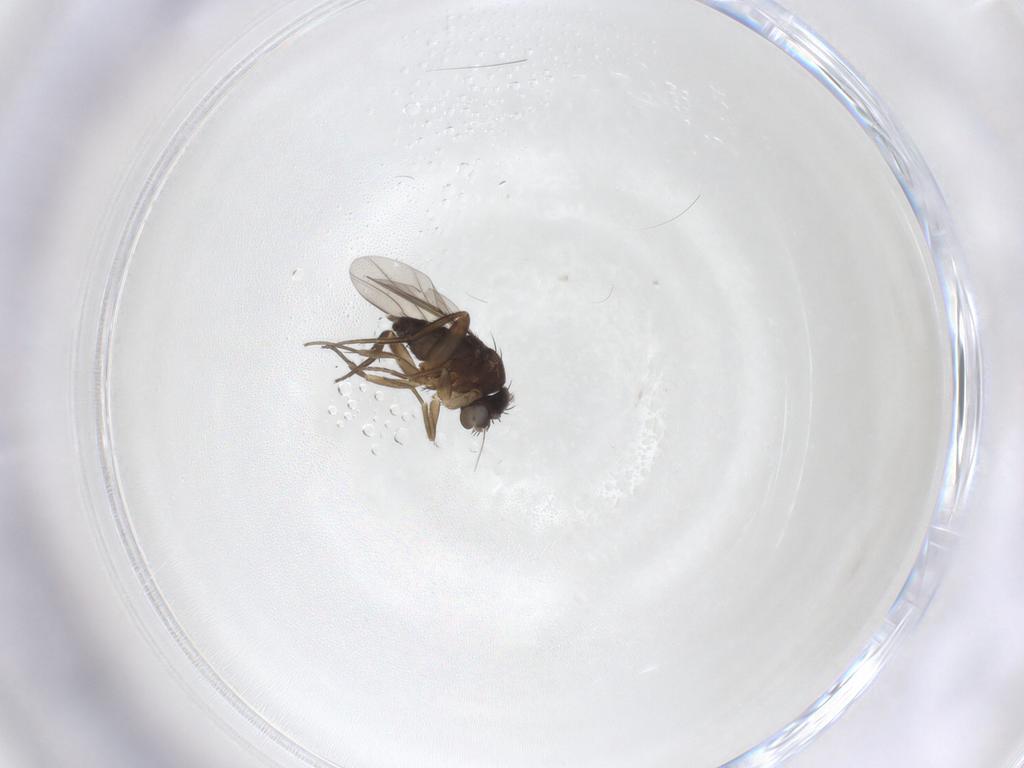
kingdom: Animalia
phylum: Arthropoda
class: Insecta
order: Diptera
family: Phoridae
